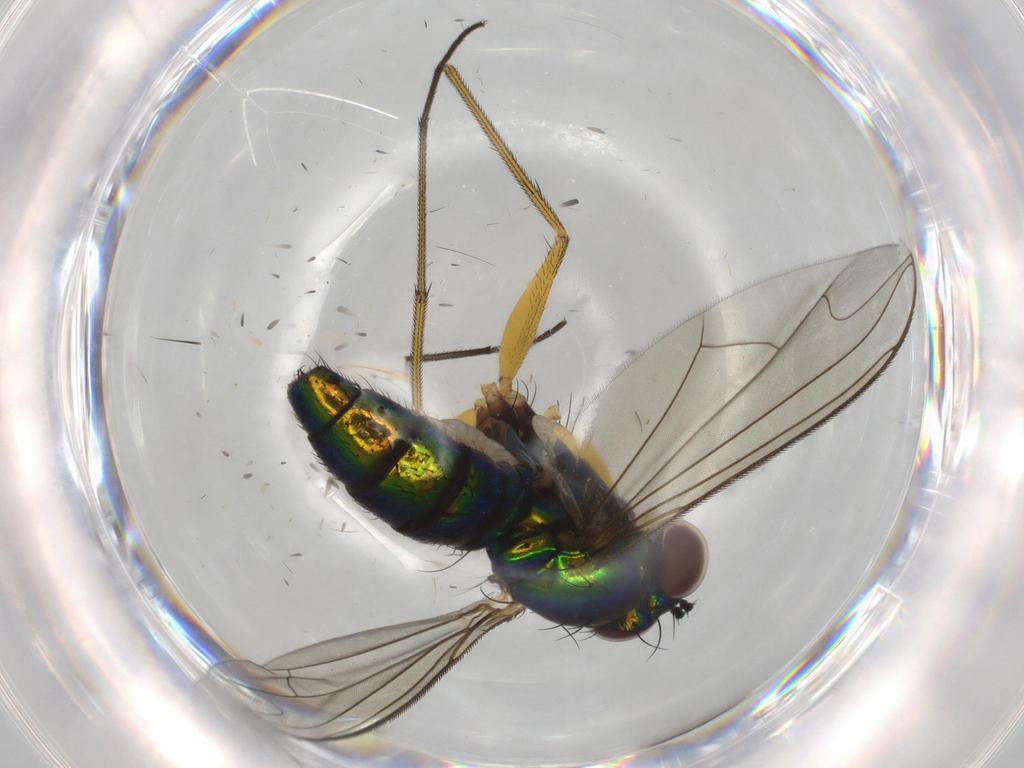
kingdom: Animalia
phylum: Arthropoda
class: Insecta
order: Diptera
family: Dolichopodidae
